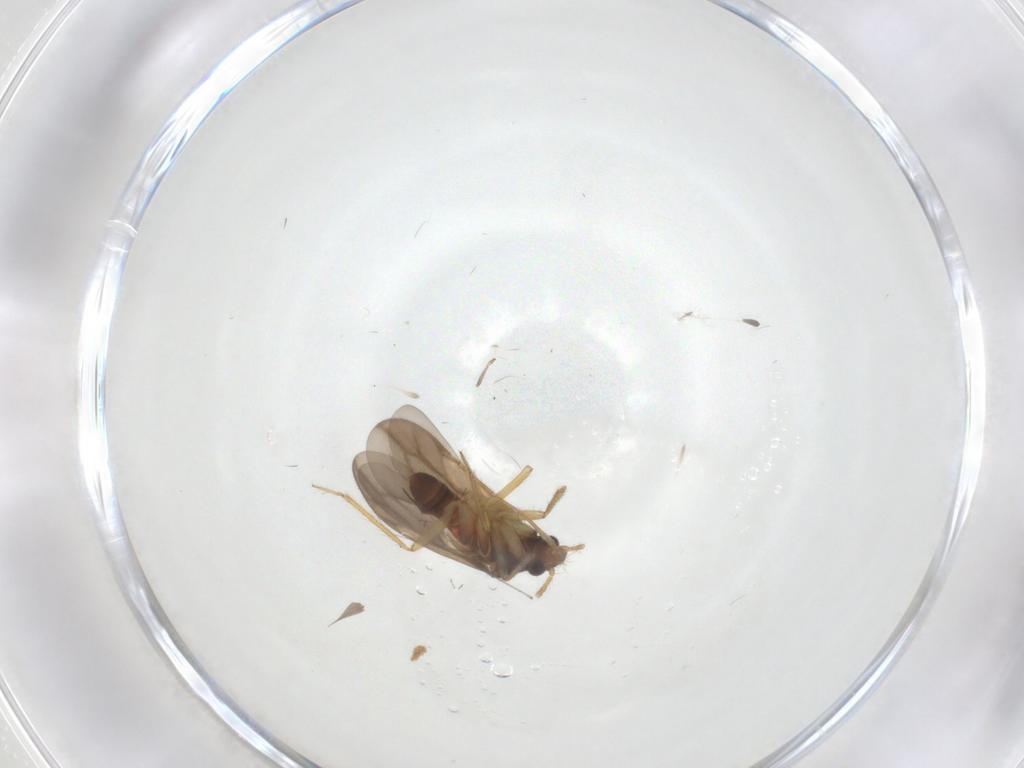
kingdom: Animalia
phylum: Arthropoda
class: Insecta
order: Hemiptera
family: Ceratocombidae
